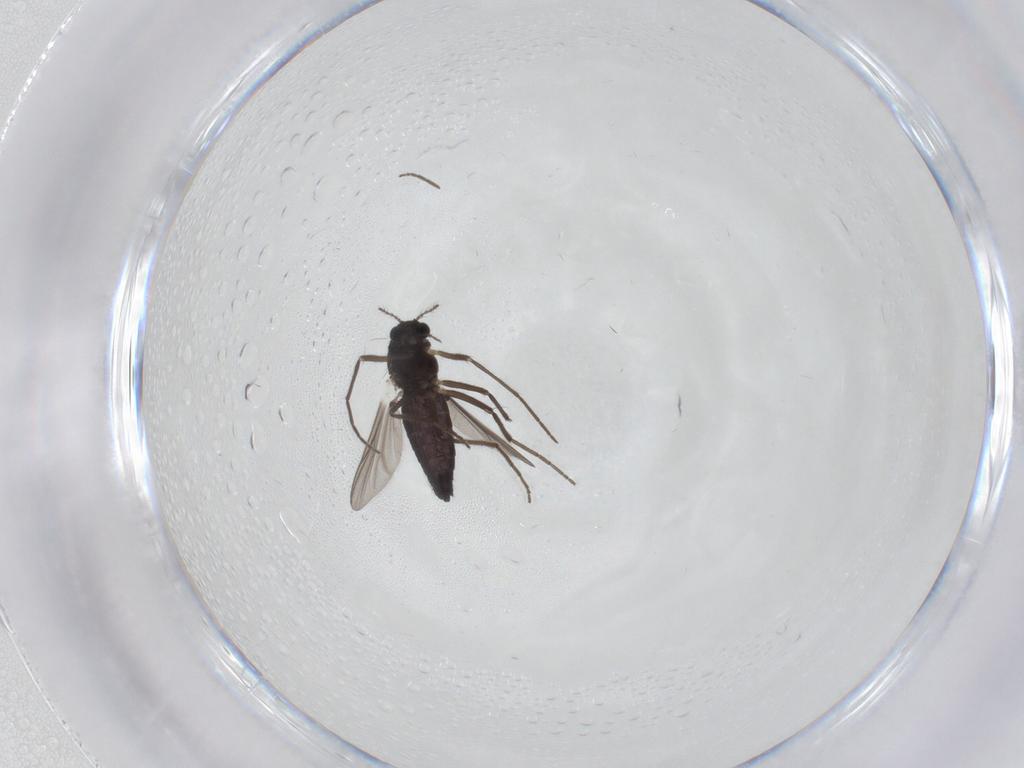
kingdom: Animalia
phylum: Arthropoda
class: Insecta
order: Diptera
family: Chironomidae
